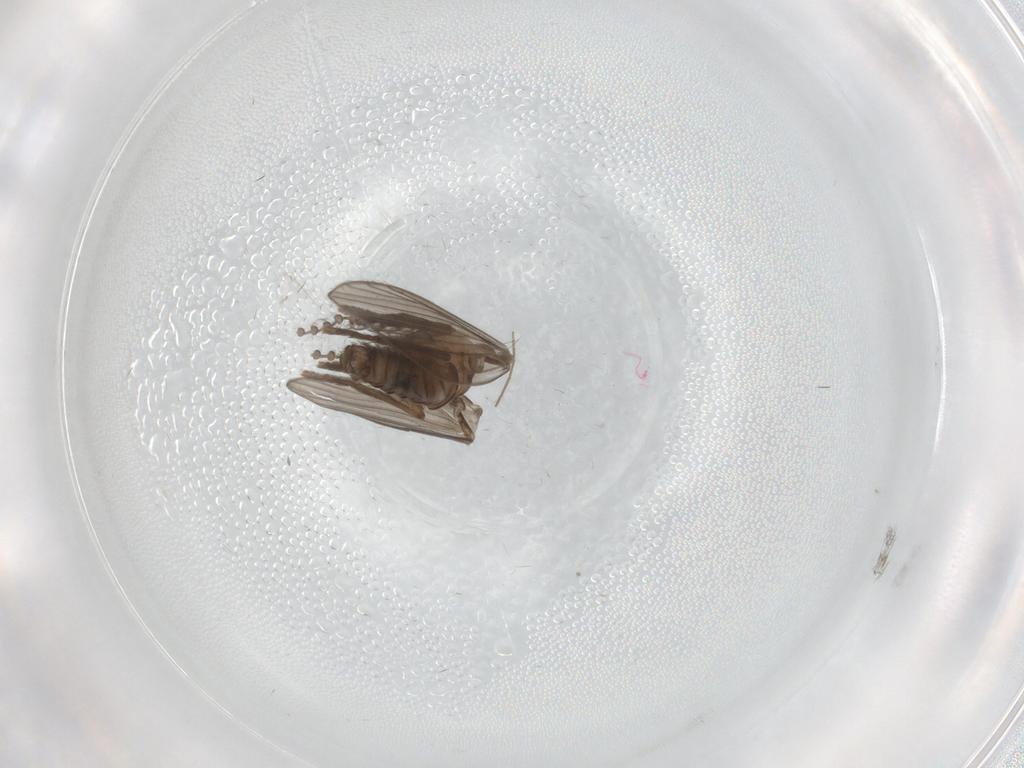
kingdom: Animalia
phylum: Arthropoda
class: Insecta
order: Diptera
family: Psychodidae
